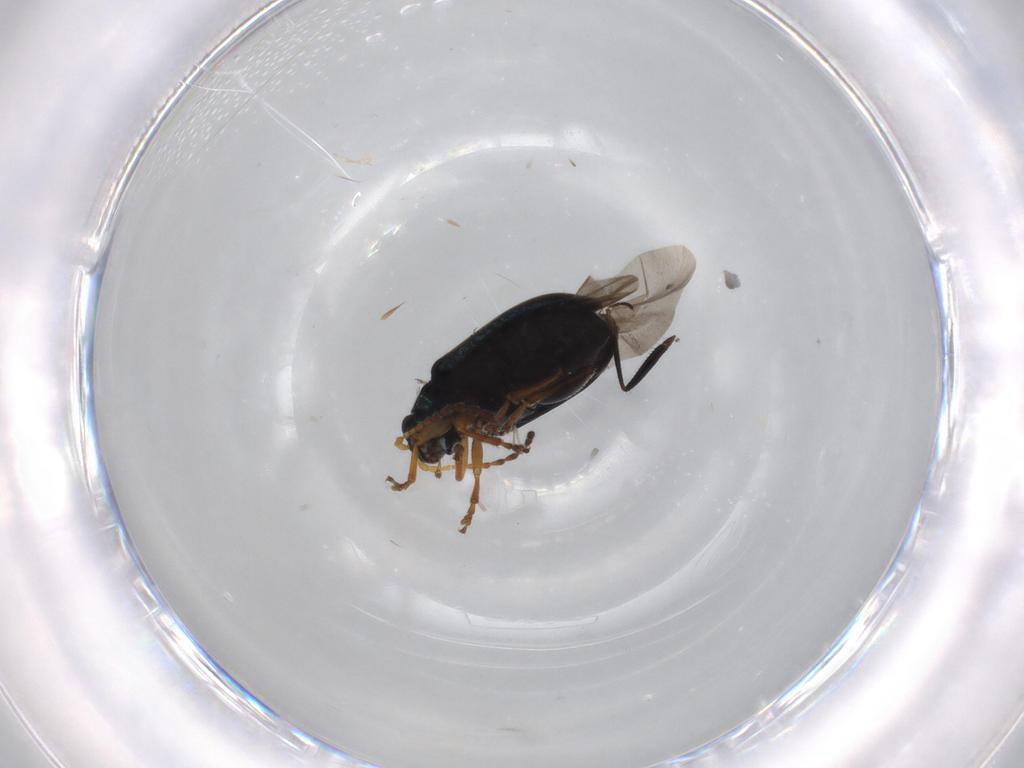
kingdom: Animalia
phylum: Arthropoda
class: Insecta
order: Coleoptera
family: Chrysomelidae
